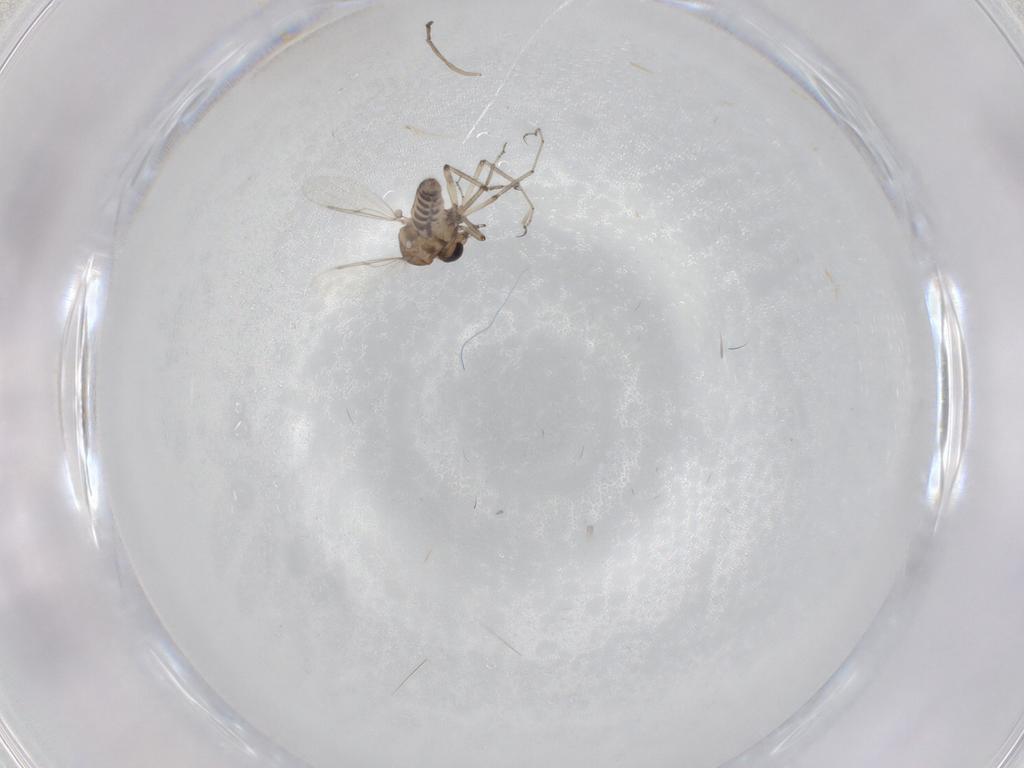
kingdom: Animalia
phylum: Arthropoda
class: Insecta
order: Diptera
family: Ceratopogonidae
